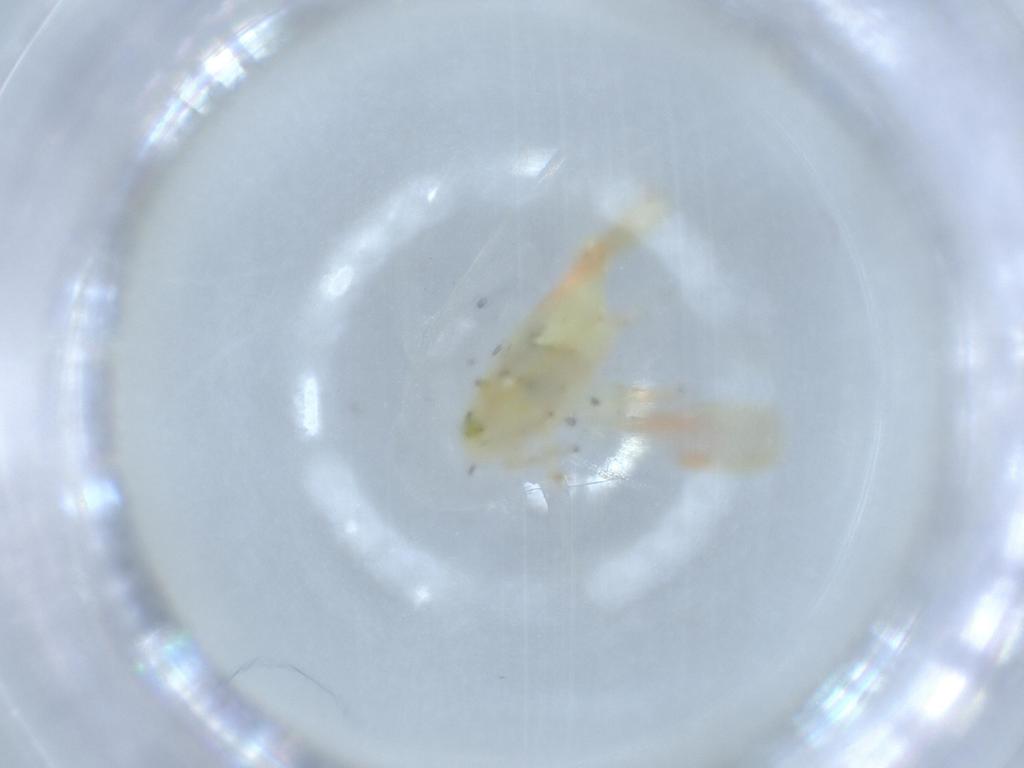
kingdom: Animalia
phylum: Arthropoda
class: Insecta
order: Hemiptera
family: Cicadellidae
